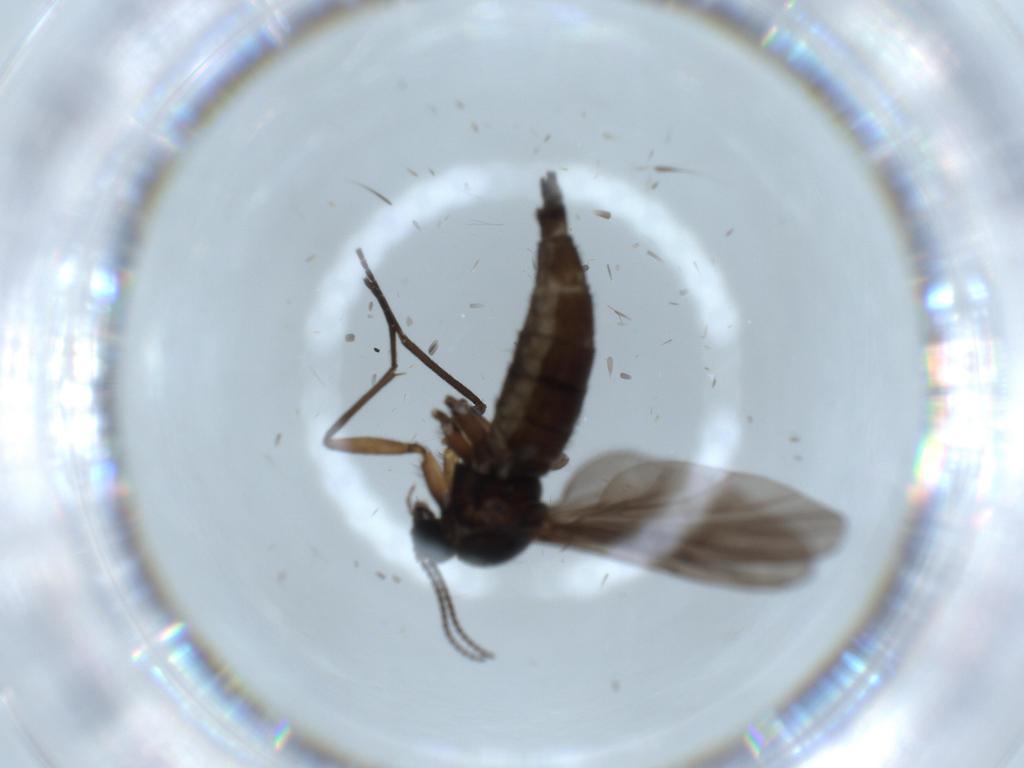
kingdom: Animalia
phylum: Arthropoda
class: Insecta
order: Diptera
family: Sciaridae
